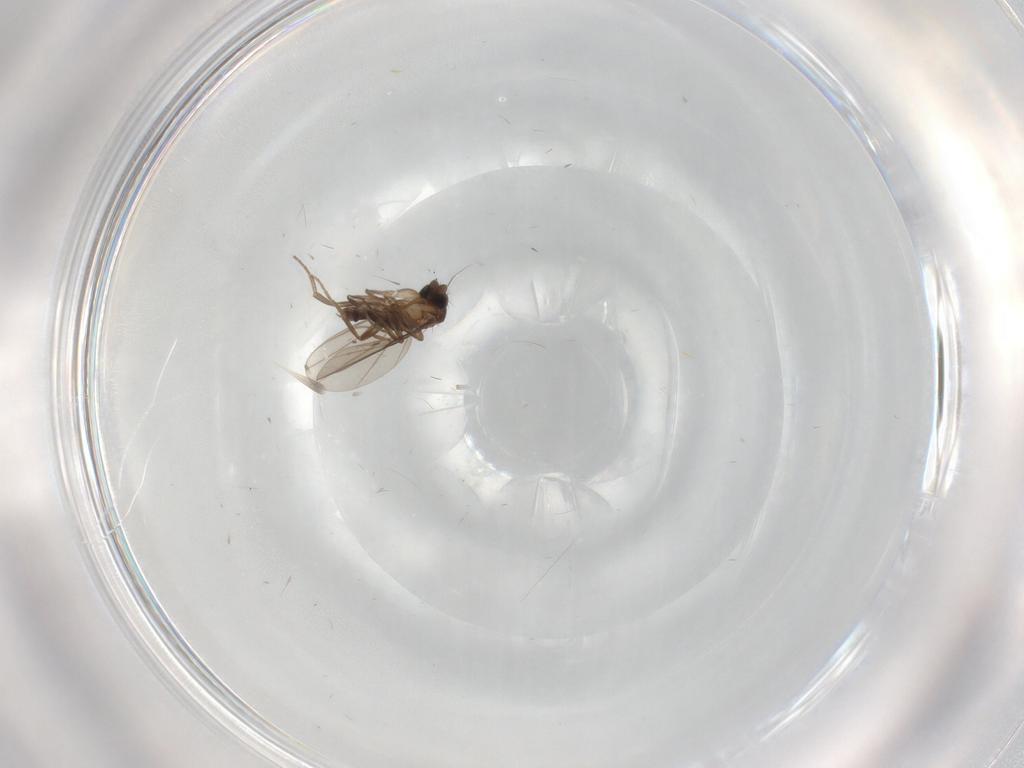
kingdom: Animalia
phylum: Arthropoda
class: Insecta
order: Diptera
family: Phoridae
